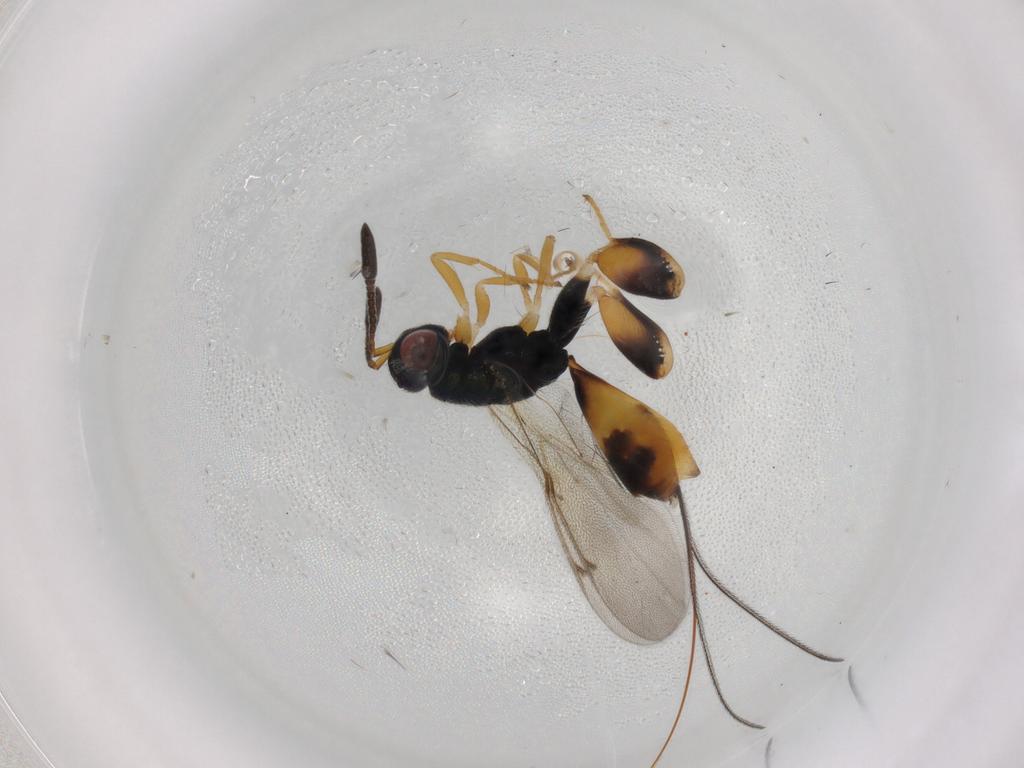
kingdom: Animalia
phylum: Arthropoda
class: Insecta
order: Hymenoptera
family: Torymidae
